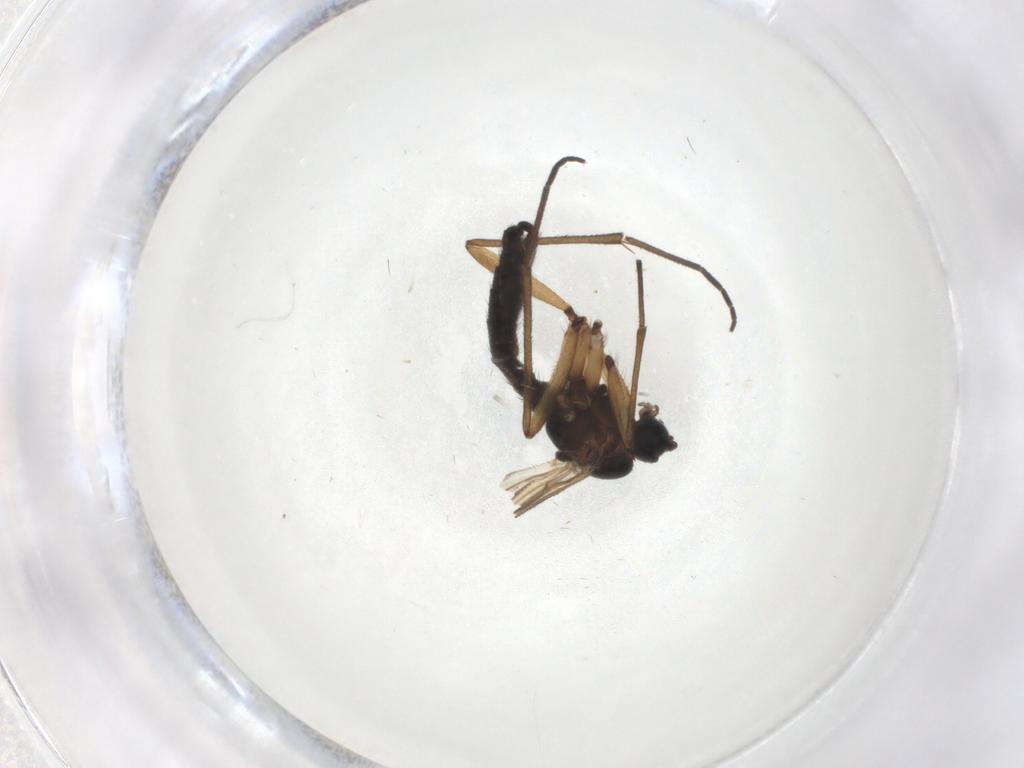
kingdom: Animalia
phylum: Arthropoda
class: Insecta
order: Diptera
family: Sciaridae
